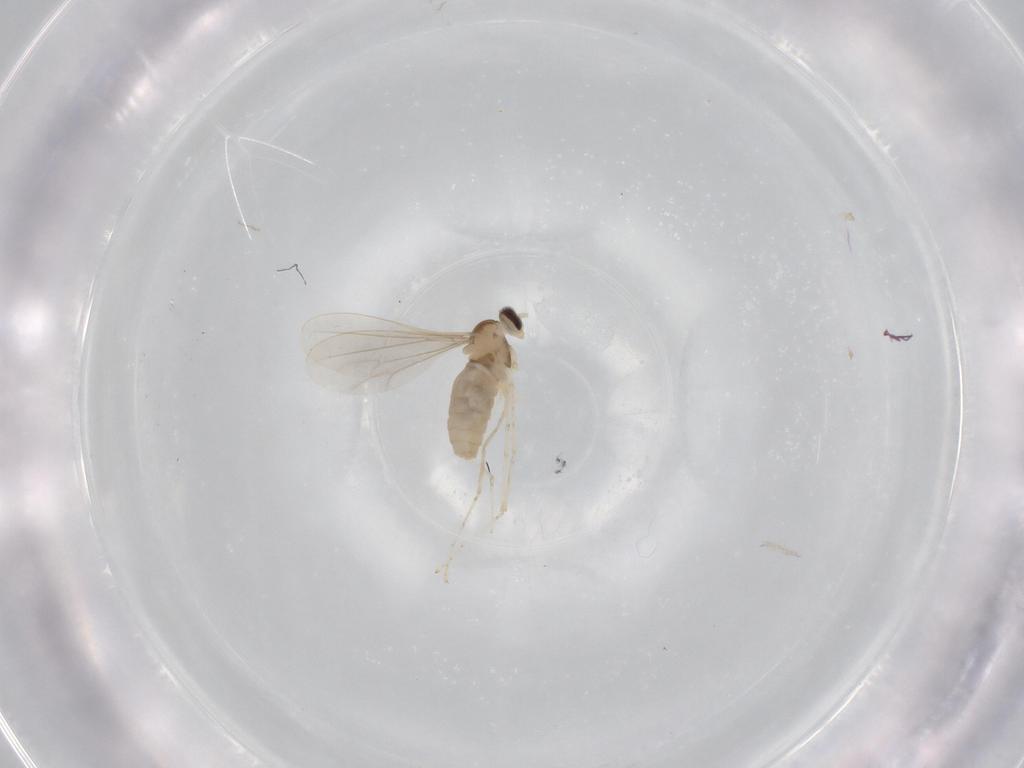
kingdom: Animalia
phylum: Arthropoda
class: Insecta
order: Diptera
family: Cecidomyiidae
